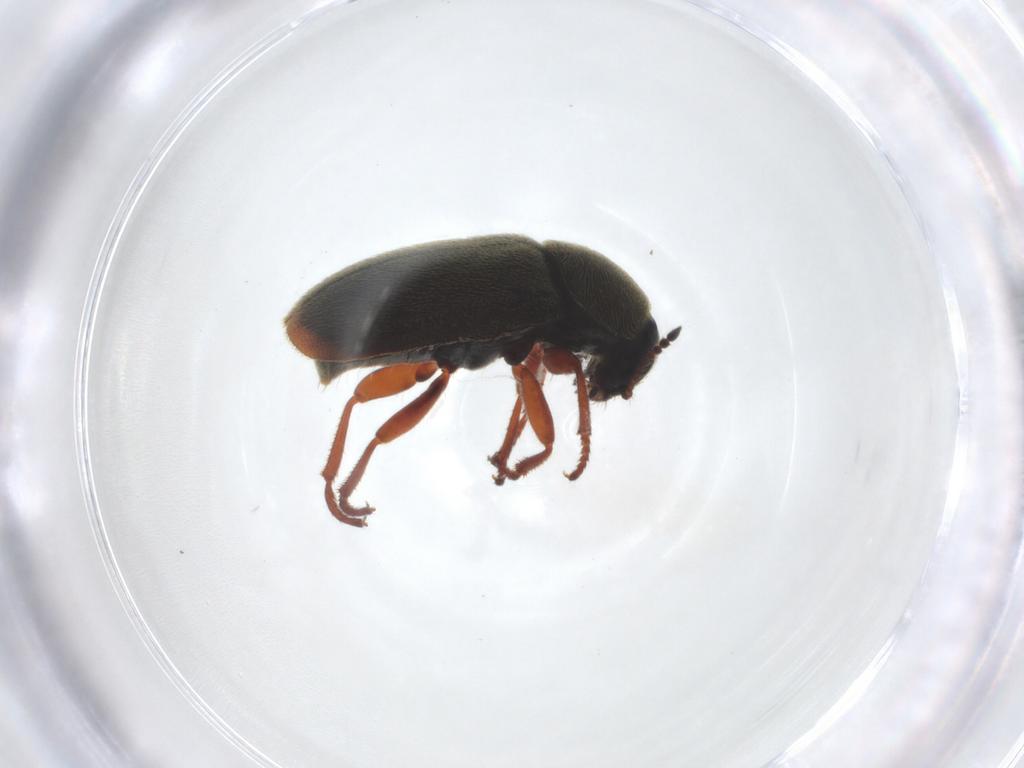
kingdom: Animalia
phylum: Arthropoda
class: Insecta
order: Coleoptera
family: Melyridae
